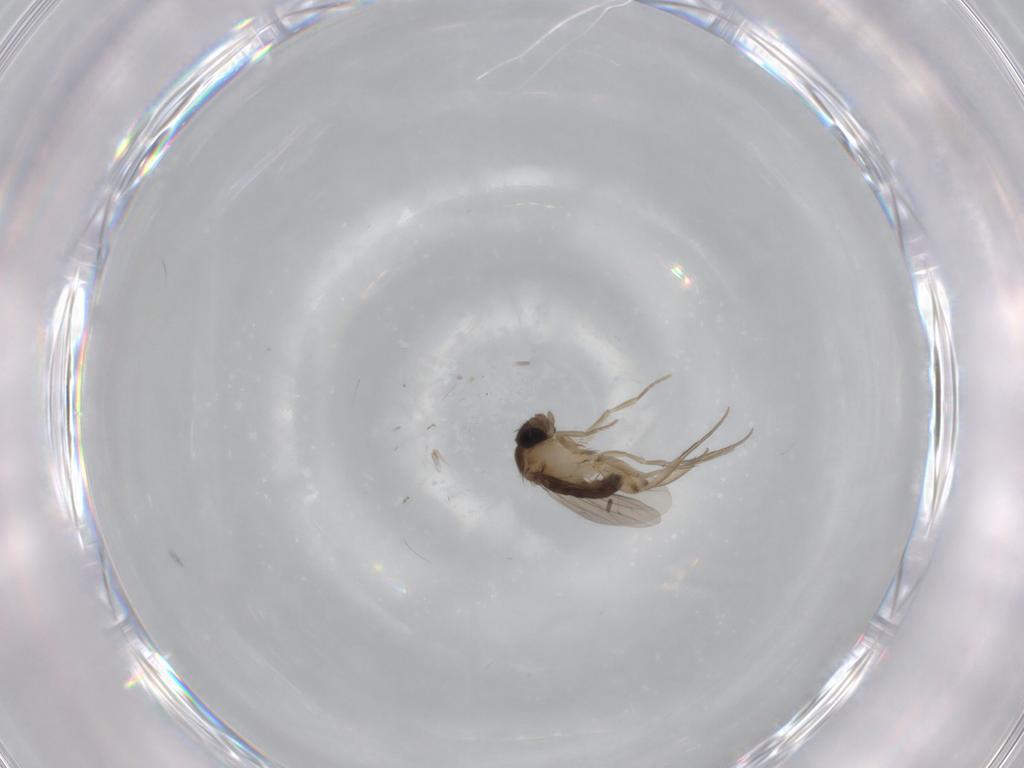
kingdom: Animalia
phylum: Arthropoda
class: Insecta
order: Diptera
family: Phoridae
